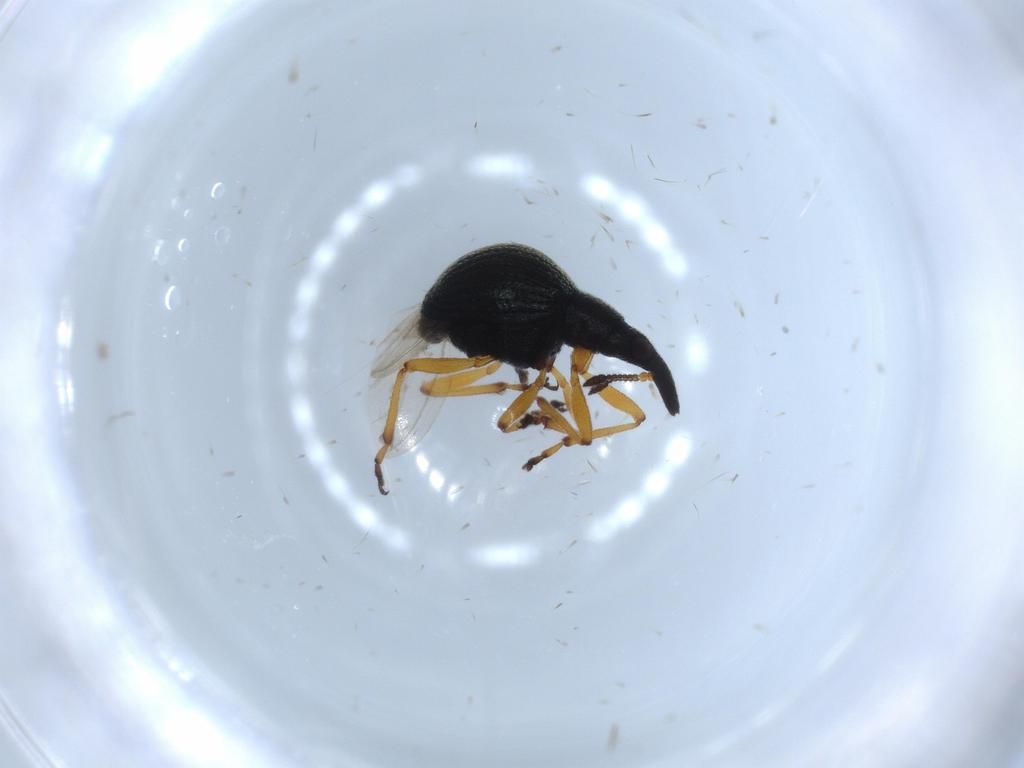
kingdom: Animalia
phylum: Arthropoda
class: Insecta
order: Coleoptera
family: Brentidae
